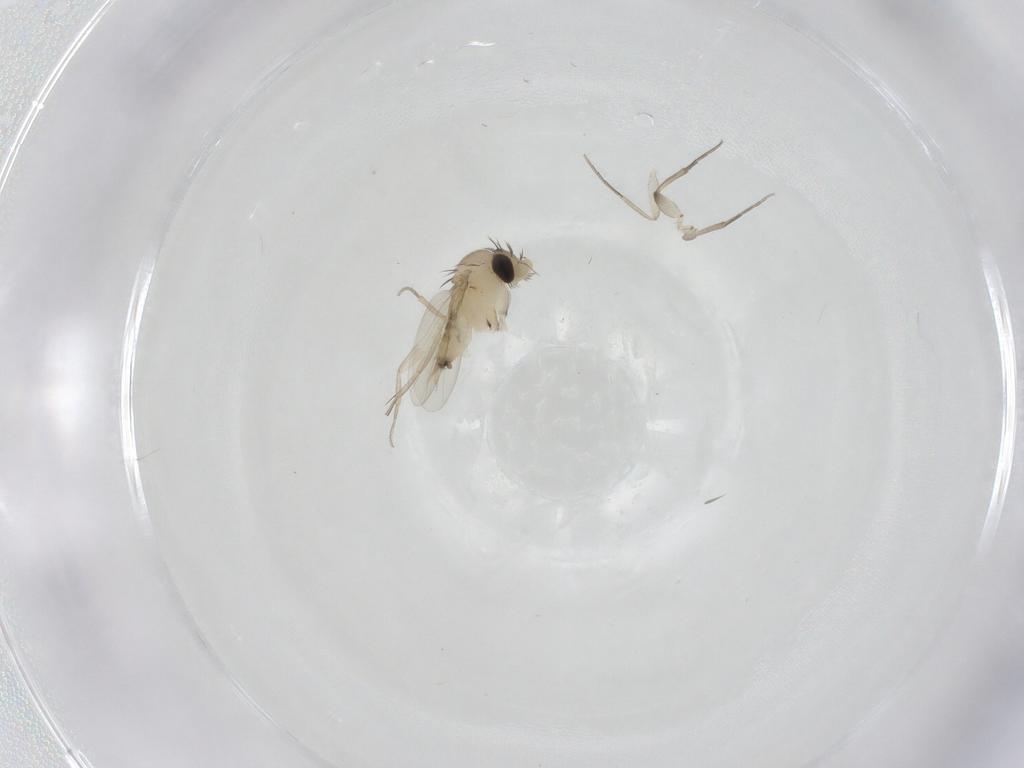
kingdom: Animalia
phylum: Arthropoda
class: Insecta
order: Diptera
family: Phoridae
